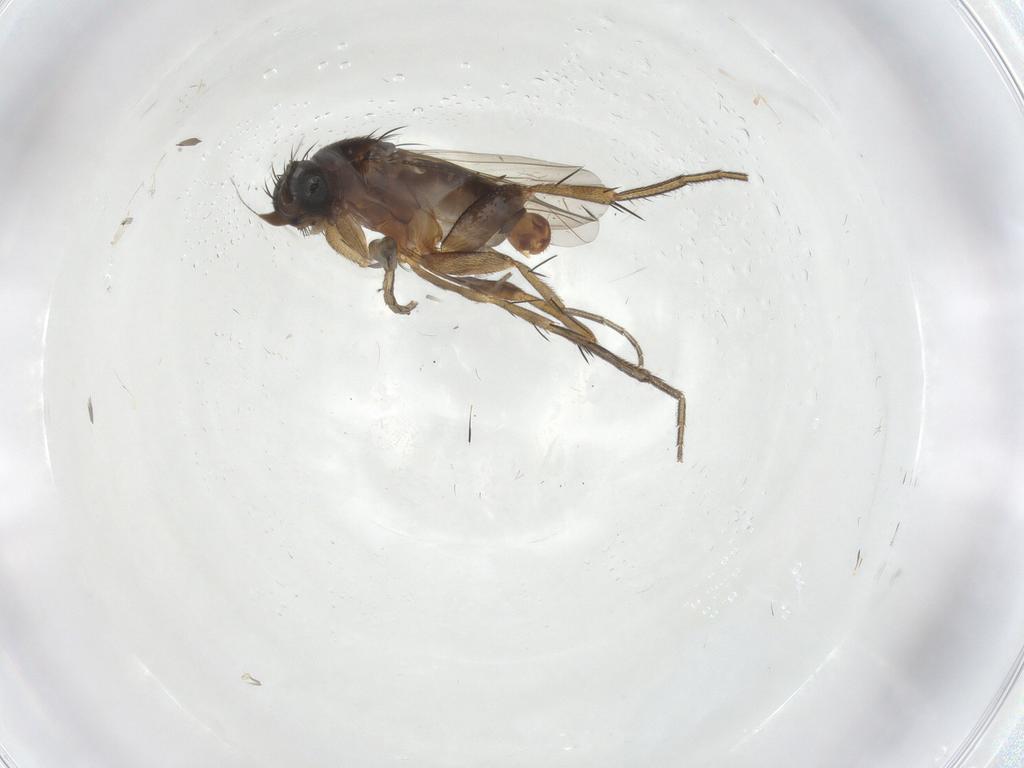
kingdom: Animalia
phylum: Arthropoda
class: Insecta
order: Diptera
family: Phoridae
